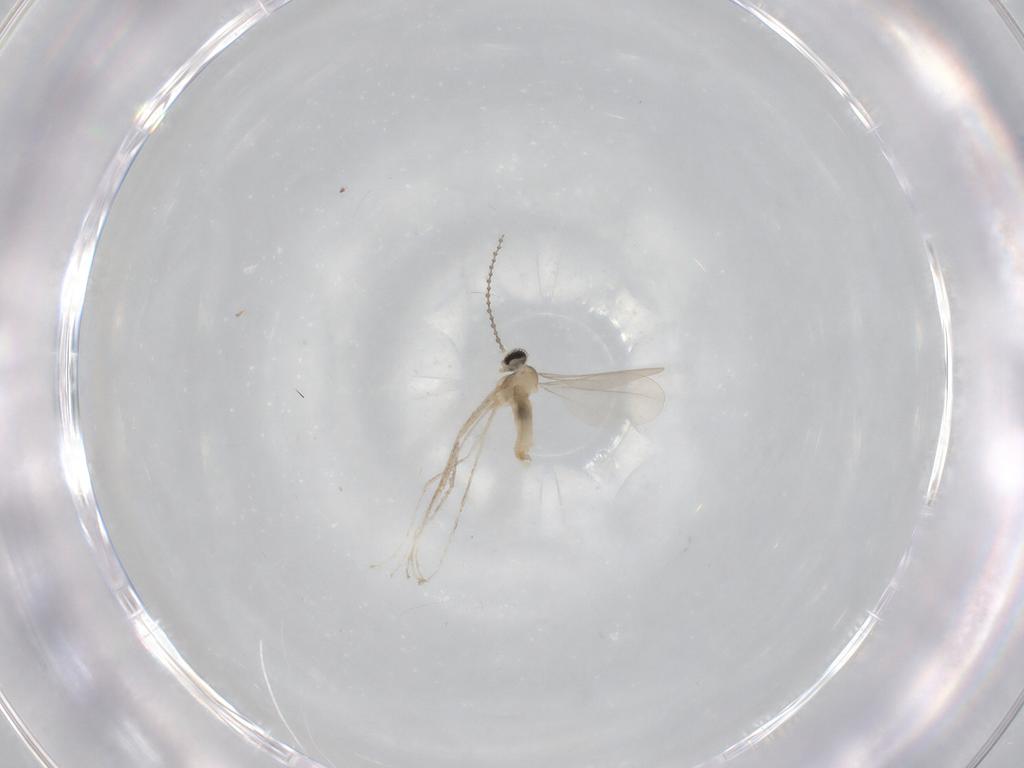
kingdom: Animalia
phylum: Arthropoda
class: Insecta
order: Diptera
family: Cecidomyiidae
